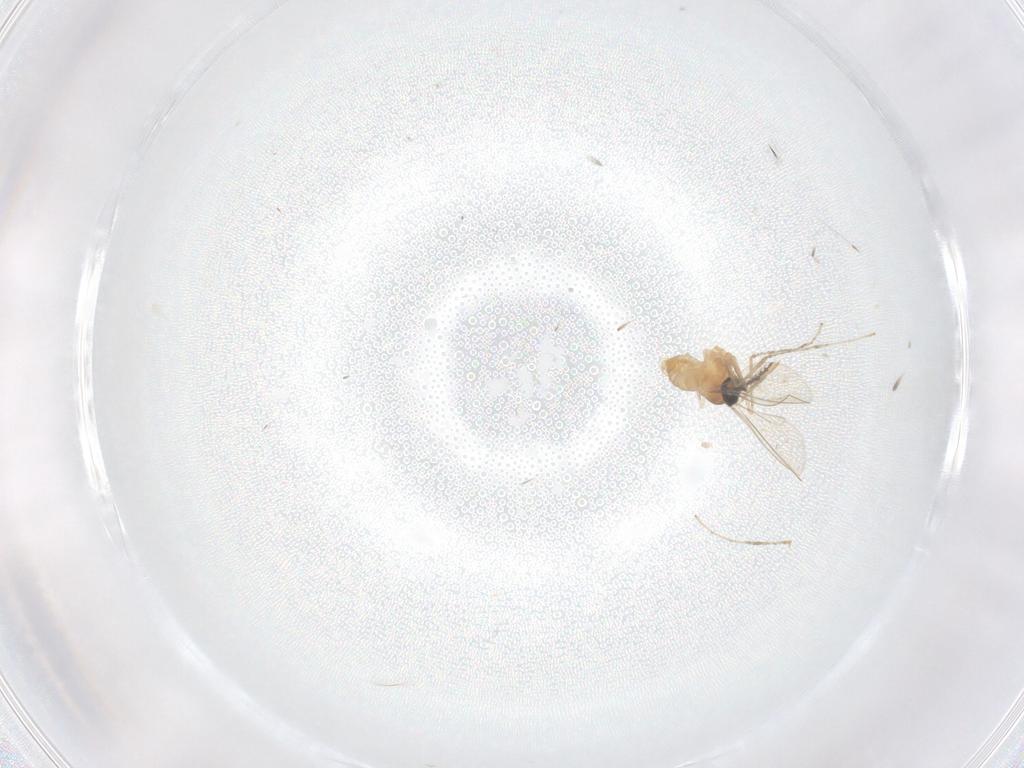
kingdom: Animalia
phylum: Arthropoda
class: Insecta
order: Diptera
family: Cecidomyiidae
